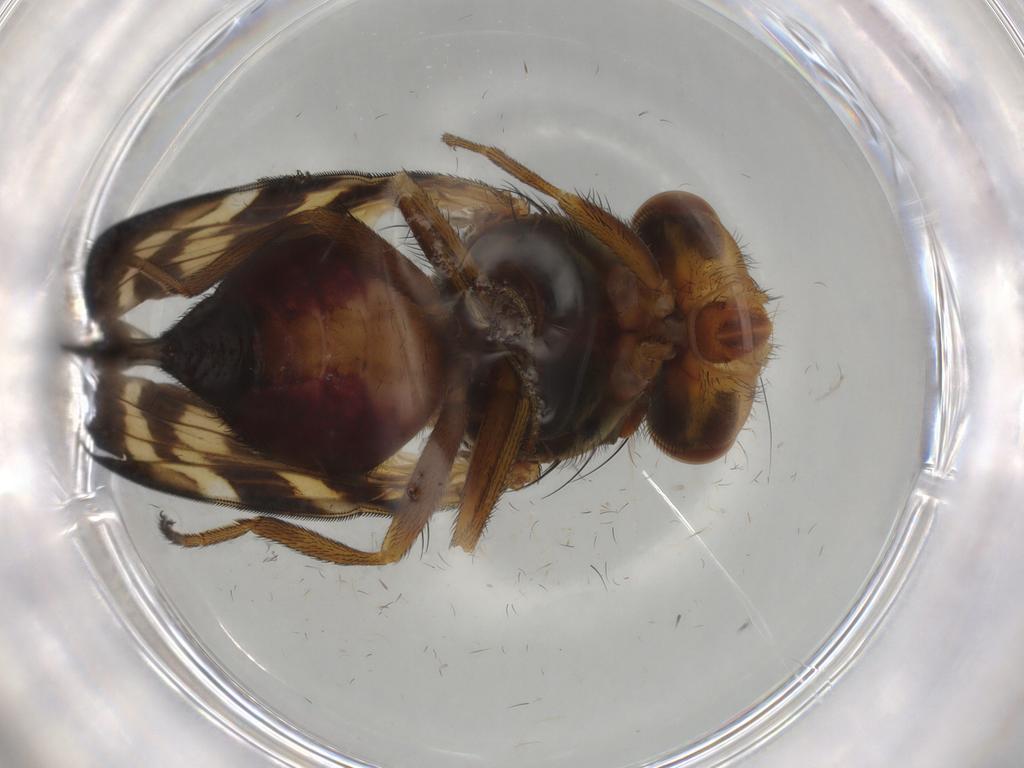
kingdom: Animalia
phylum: Arthropoda
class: Insecta
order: Diptera
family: Ulidiidae
